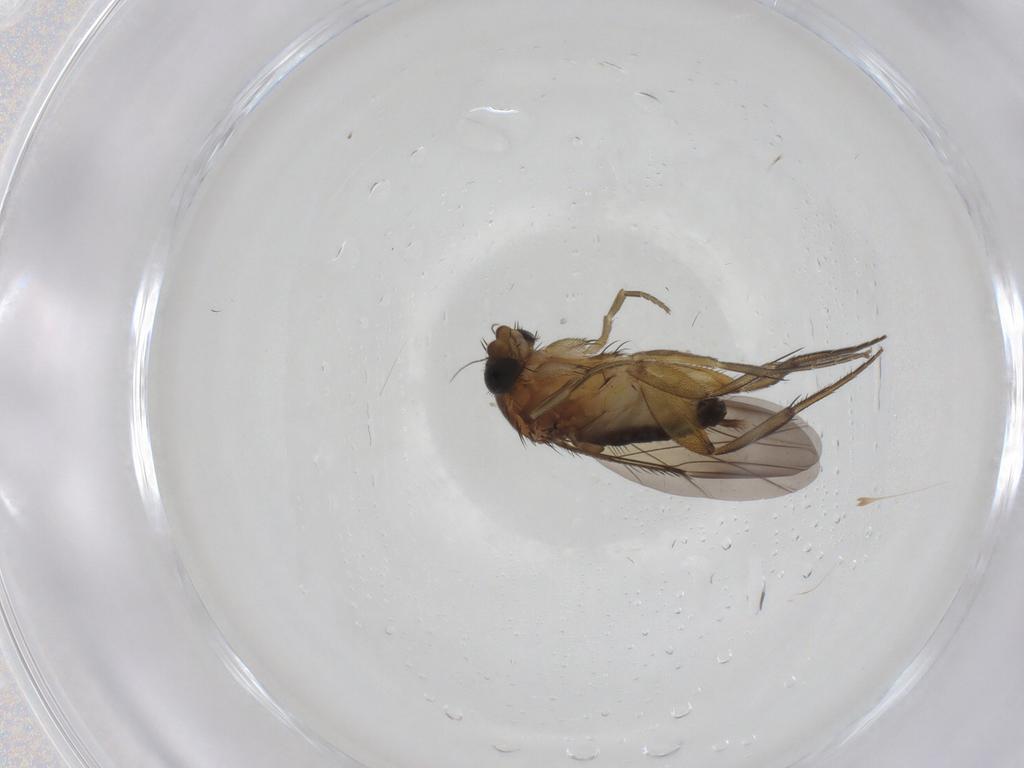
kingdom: Animalia
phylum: Arthropoda
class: Insecta
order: Diptera
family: Phoridae
